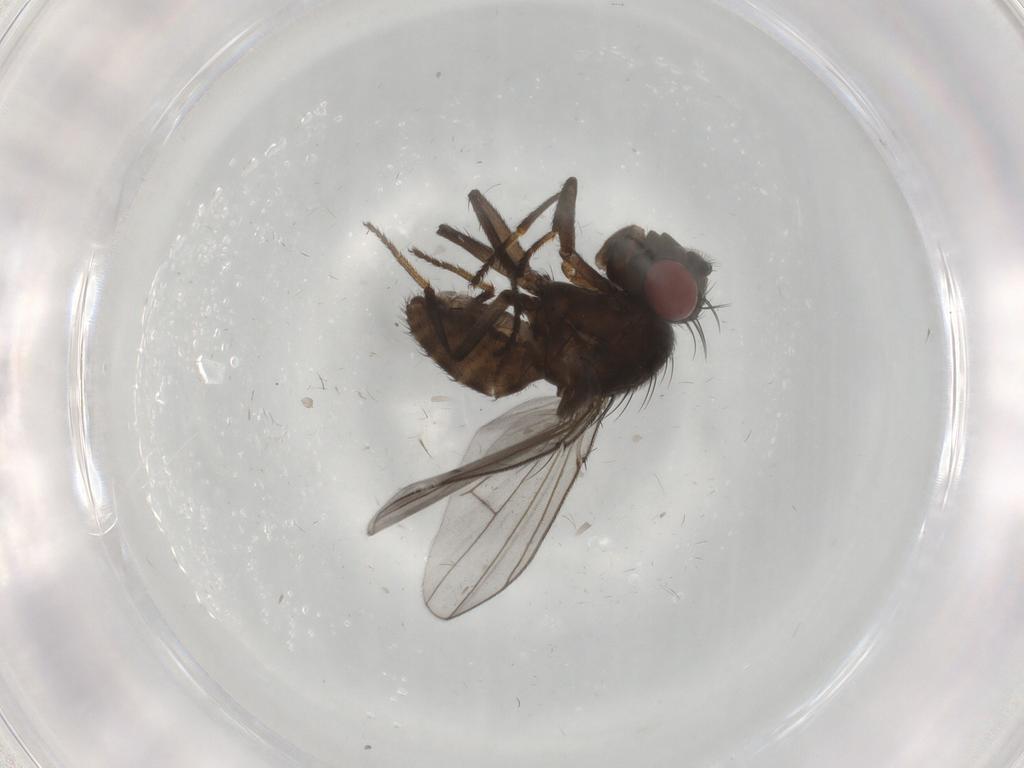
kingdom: Animalia
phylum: Arthropoda
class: Insecta
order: Diptera
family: Ephydridae
